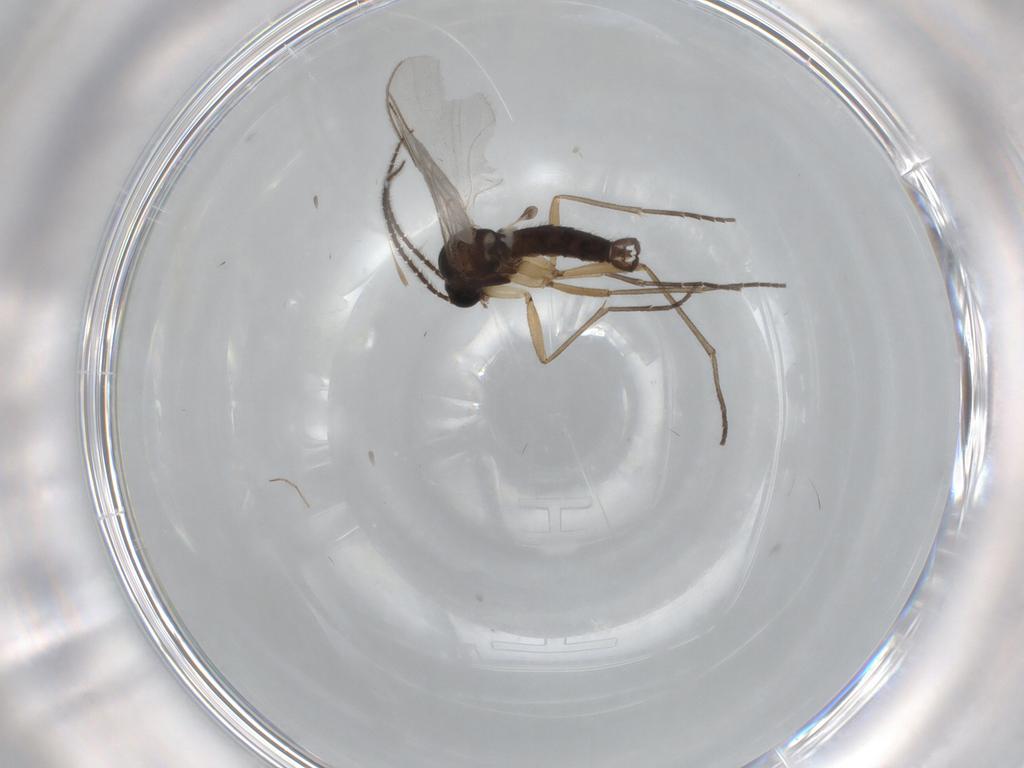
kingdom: Animalia
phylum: Arthropoda
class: Insecta
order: Diptera
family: Sciaridae
